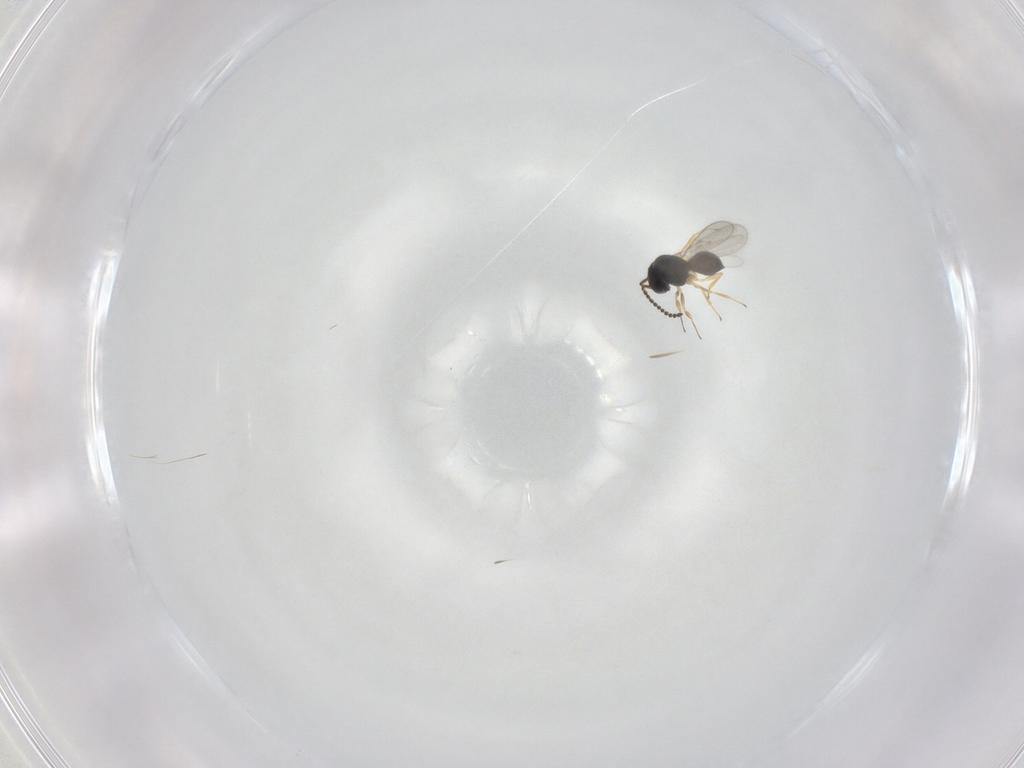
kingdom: Animalia
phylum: Arthropoda
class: Insecta
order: Hymenoptera
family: Scelionidae
